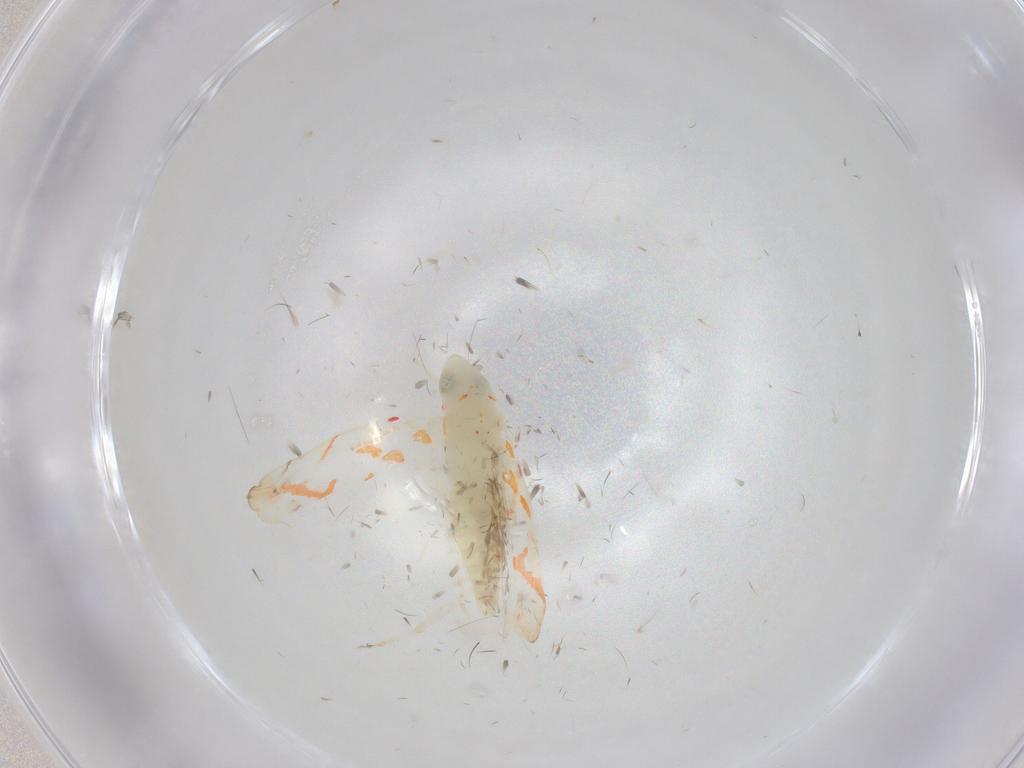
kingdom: Animalia
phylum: Arthropoda
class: Insecta
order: Hemiptera
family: Cicadellidae
